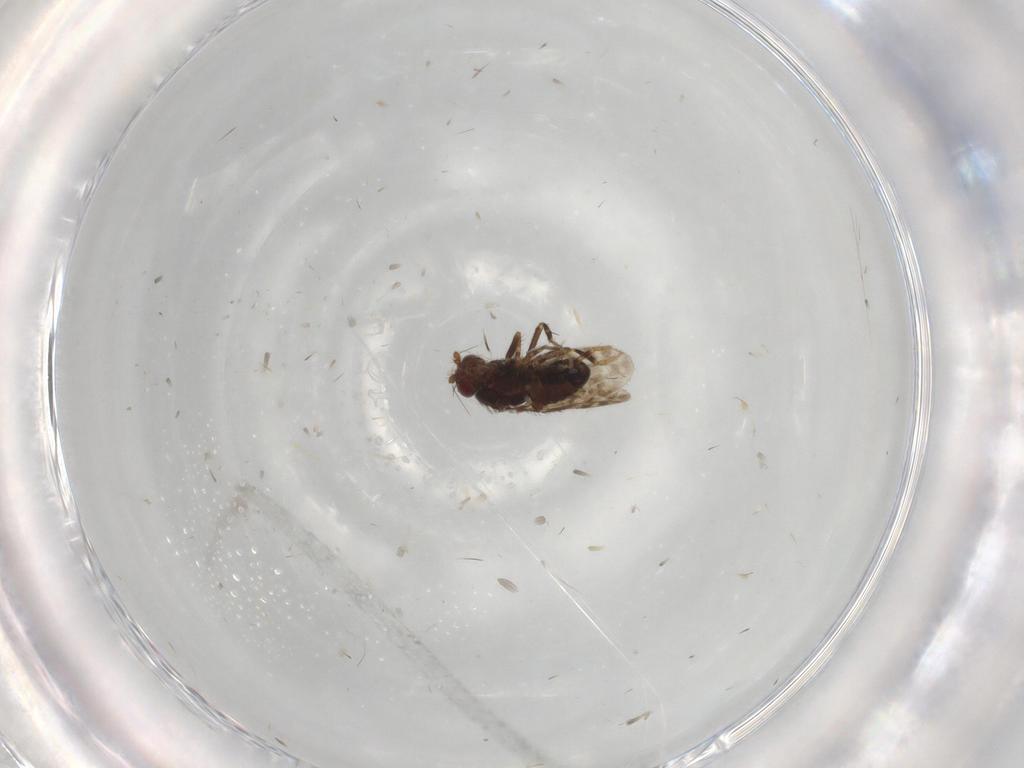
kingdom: Animalia
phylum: Arthropoda
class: Insecta
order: Diptera
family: Sphaeroceridae
